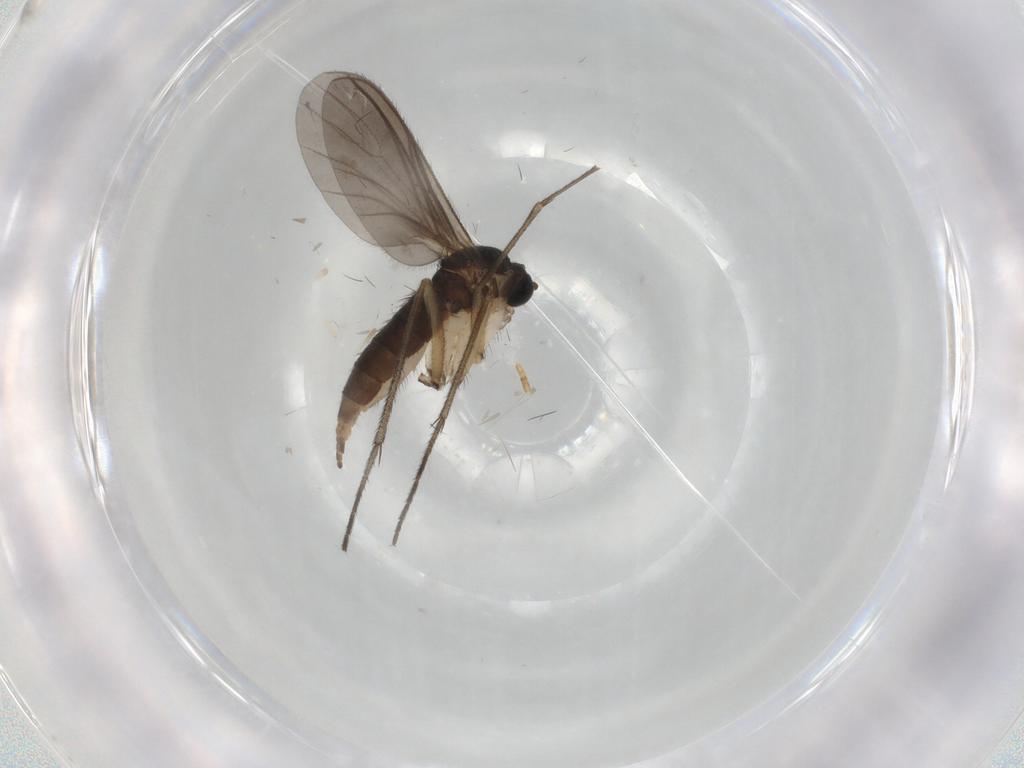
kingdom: Animalia
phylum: Arthropoda
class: Insecta
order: Diptera
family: Sciaridae
